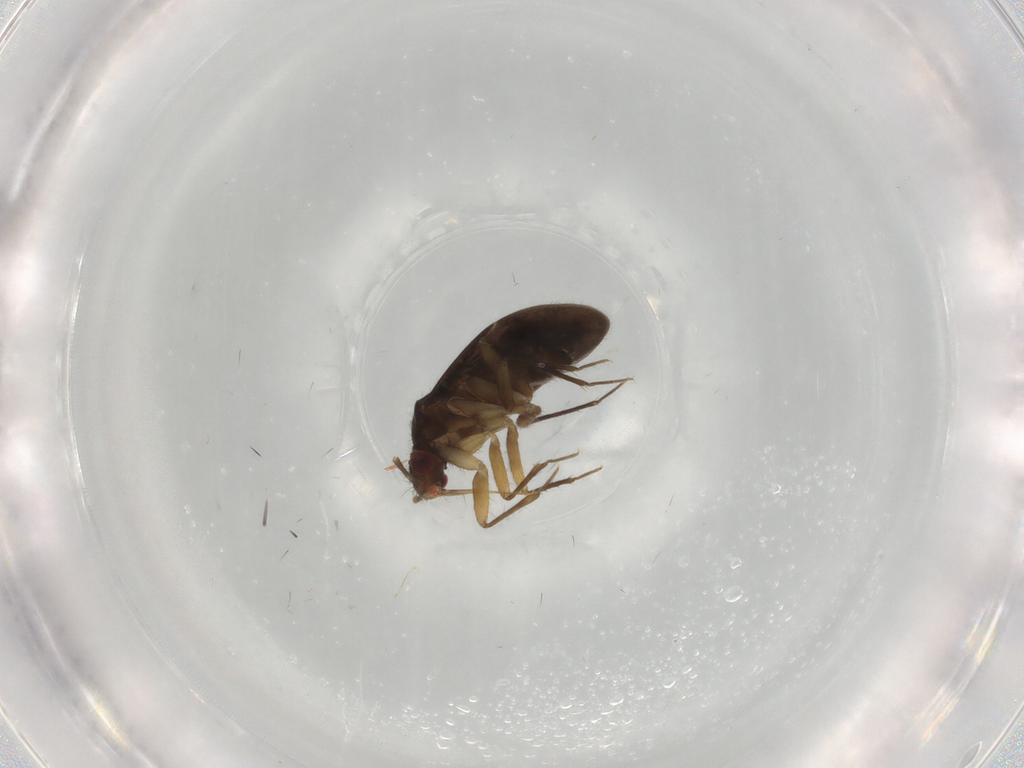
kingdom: Animalia
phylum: Arthropoda
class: Insecta
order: Hemiptera
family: Ceratocombidae
